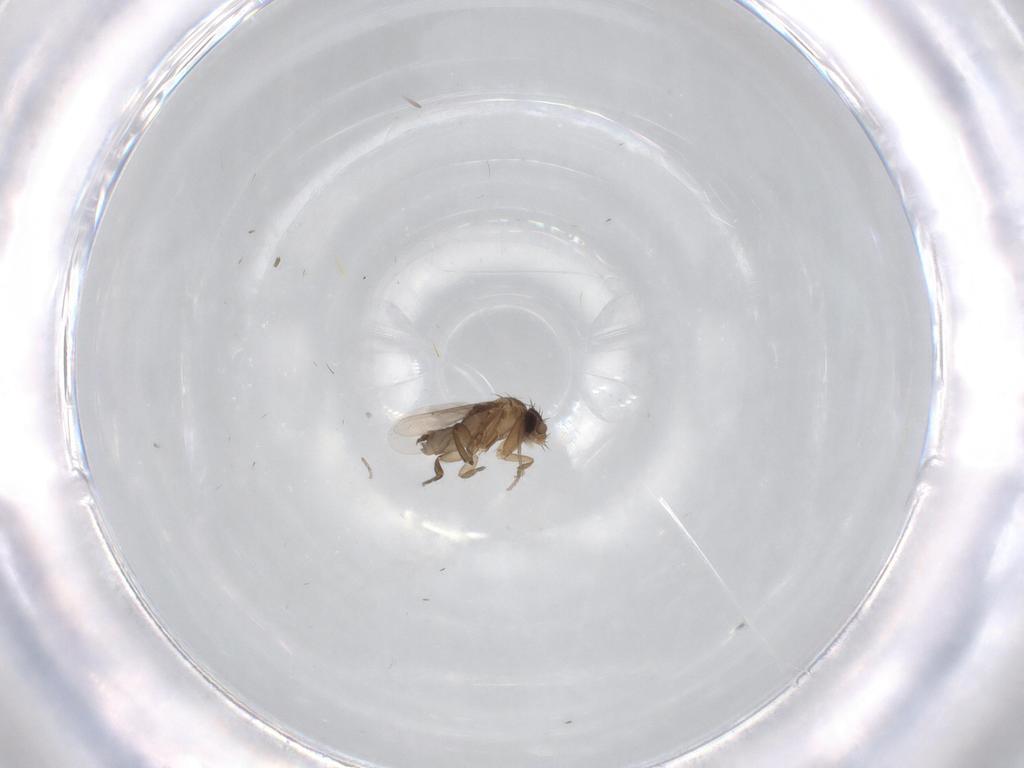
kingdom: Animalia
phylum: Arthropoda
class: Insecta
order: Diptera
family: Phoridae
